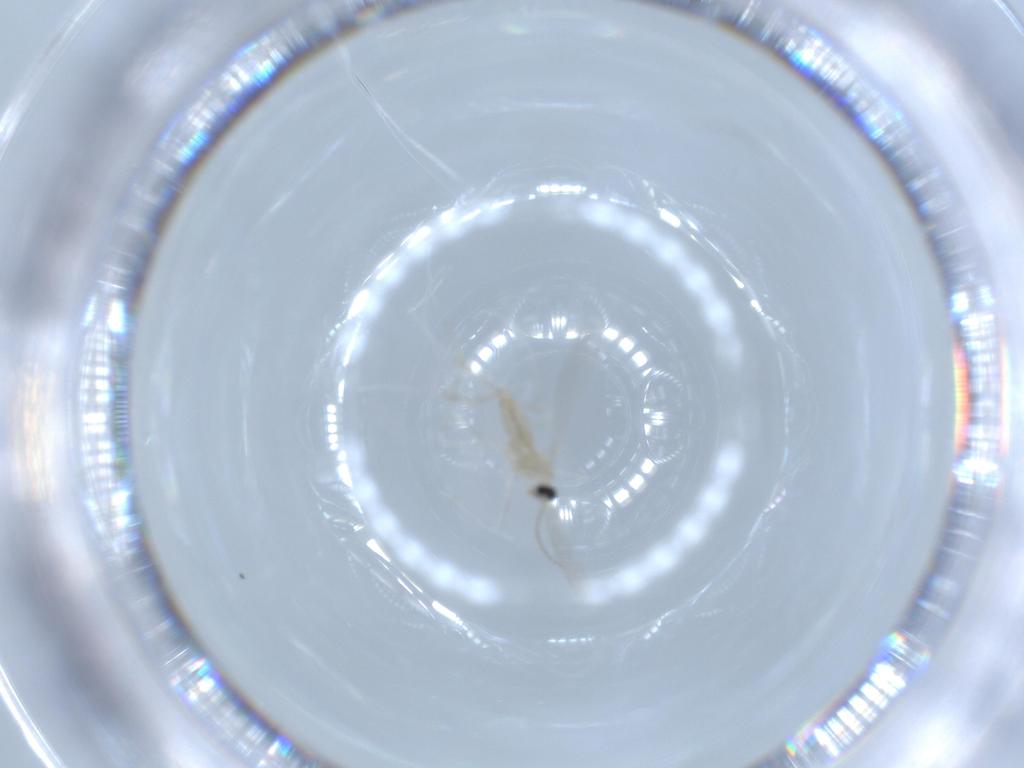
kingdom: Animalia
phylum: Arthropoda
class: Insecta
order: Diptera
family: Cecidomyiidae
